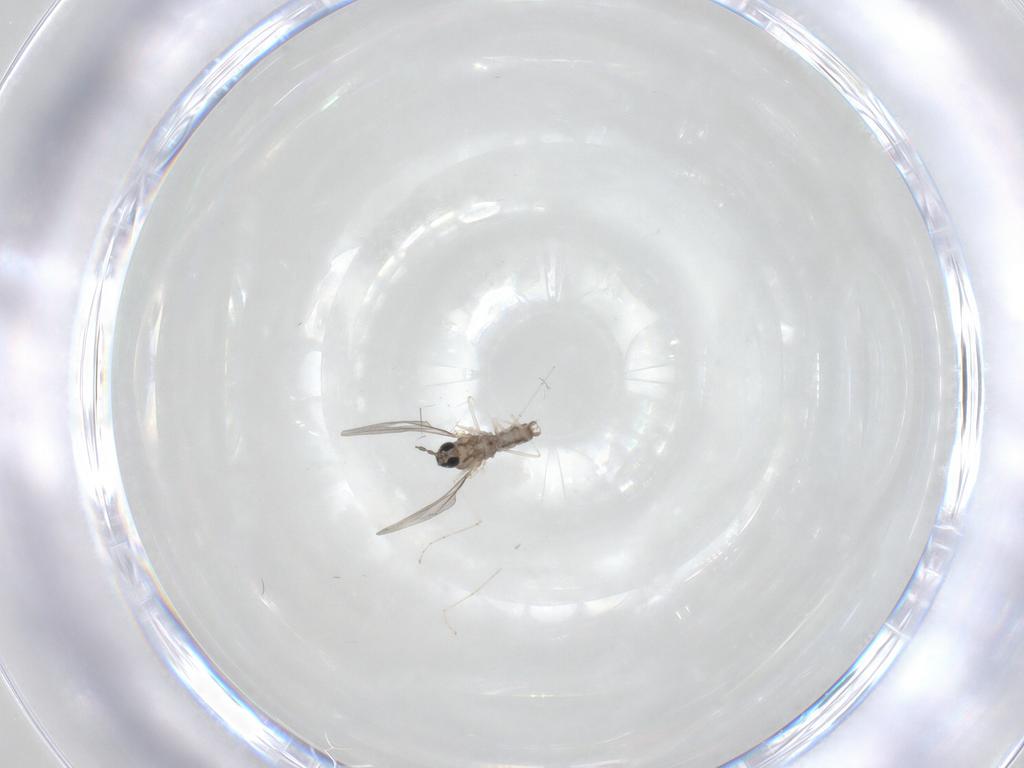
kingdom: Animalia
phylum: Arthropoda
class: Insecta
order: Diptera
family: Cecidomyiidae
